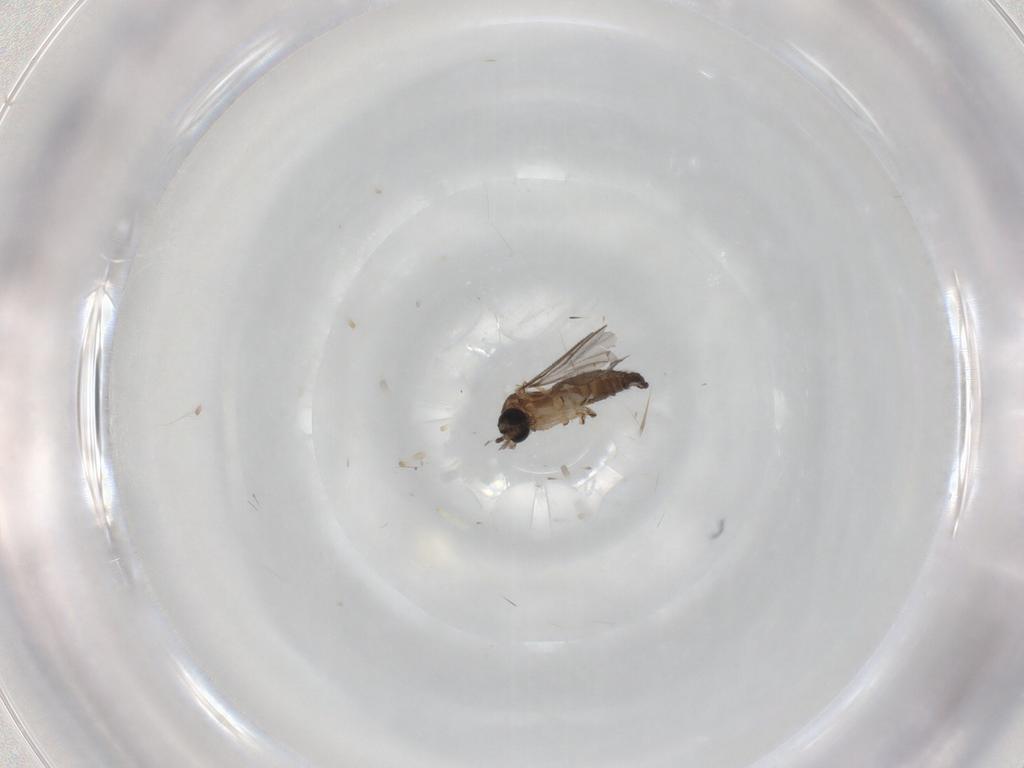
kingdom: Animalia
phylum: Arthropoda
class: Insecta
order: Diptera
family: Sciaridae
